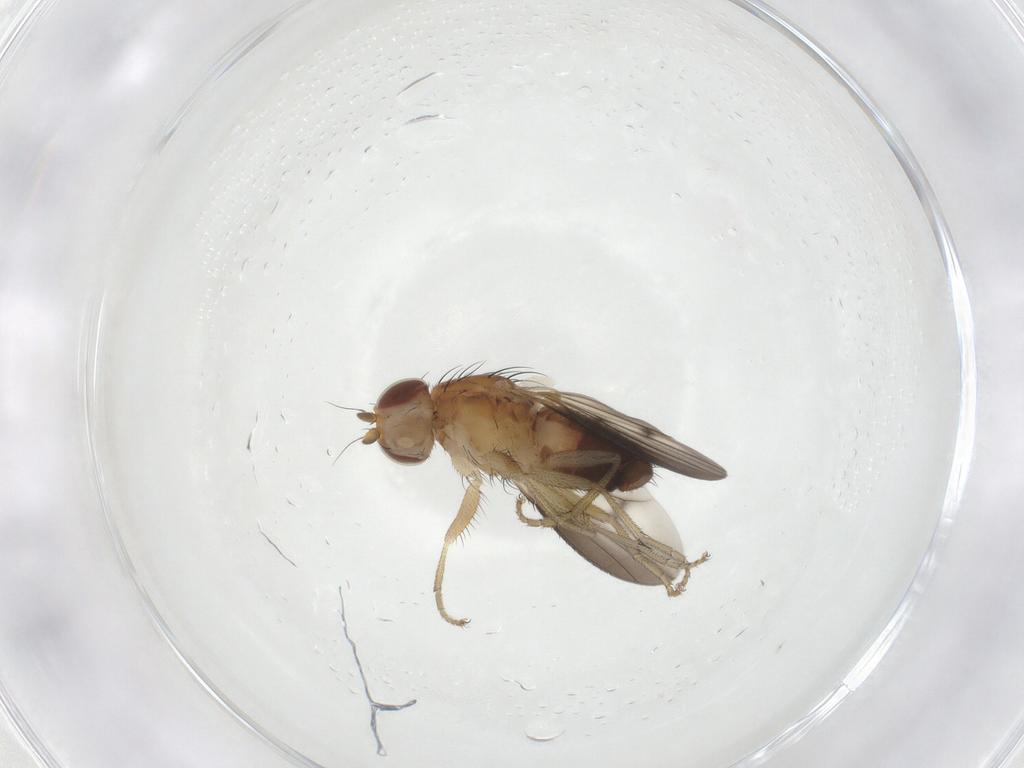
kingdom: Animalia
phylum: Arthropoda
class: Insecta
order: Diptera
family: Heleomyzidae
